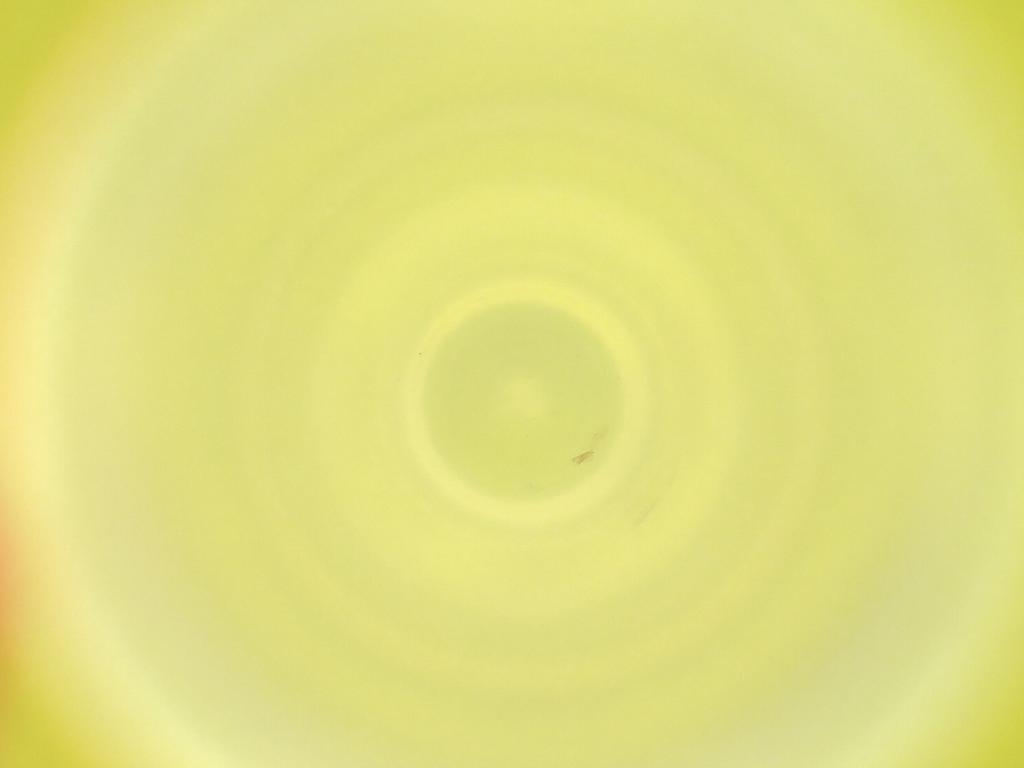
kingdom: Animalia
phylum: Arthropoda
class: Insecta
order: Diptera
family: Cecidomyiidae
